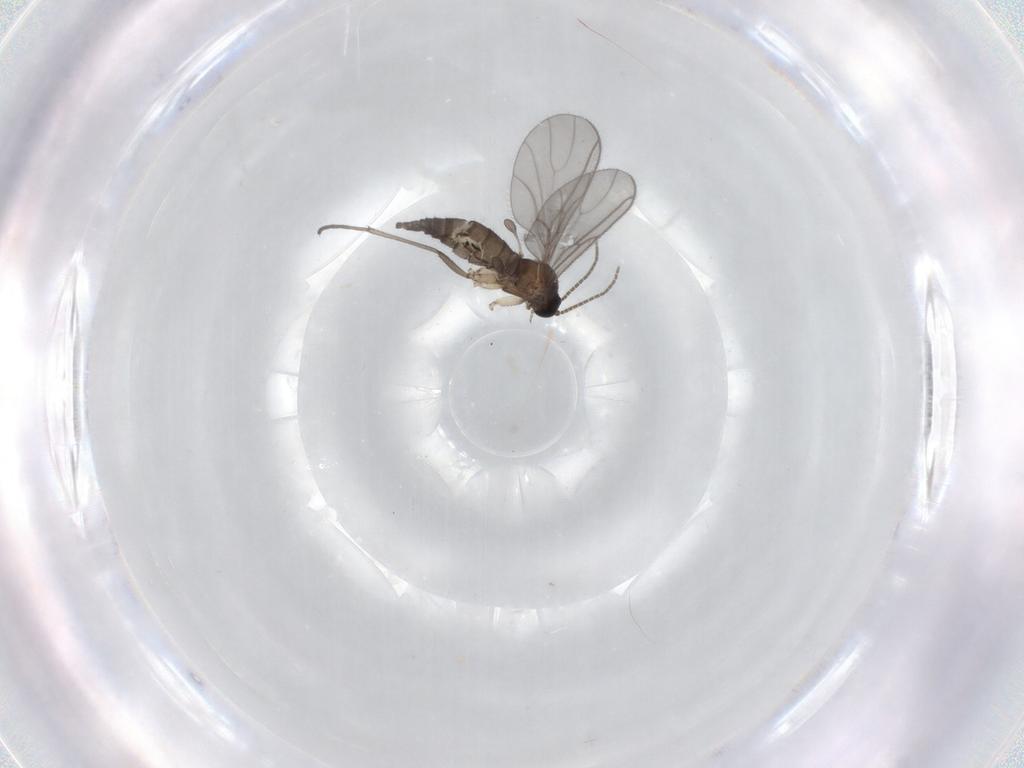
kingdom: Animalia
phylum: Arthropoda
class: Insecta
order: Diptera
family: Sciaridae
